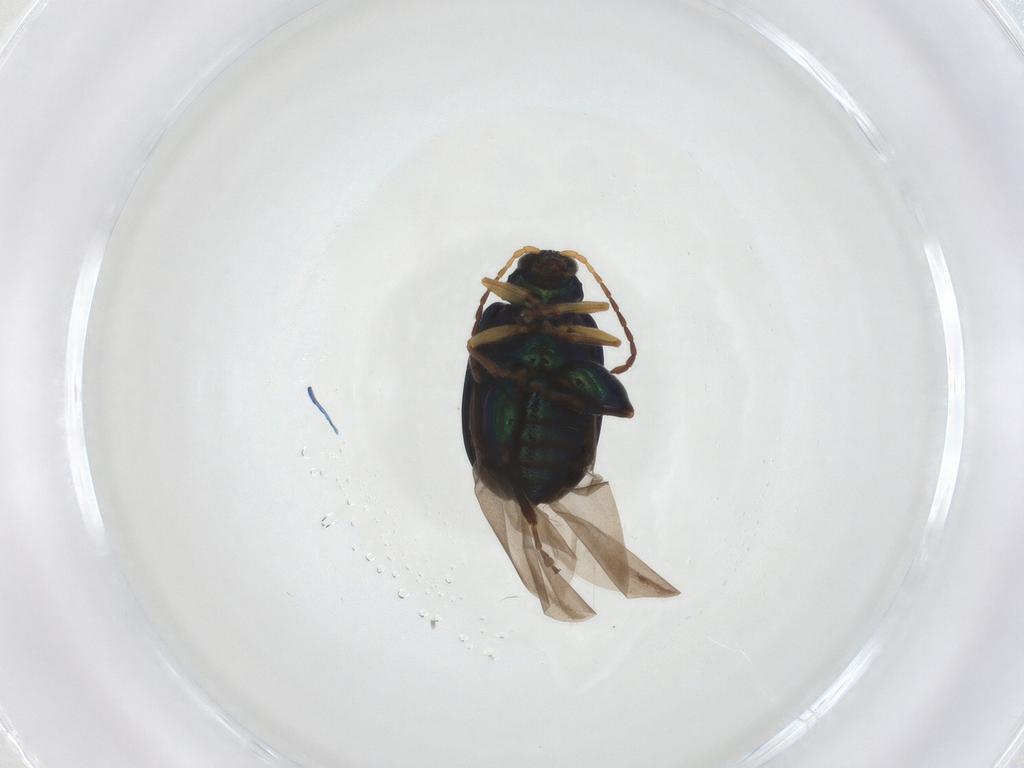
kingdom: Animalia
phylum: Arthropoda
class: Insecta
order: Coleoptera
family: Chrysomelidae
